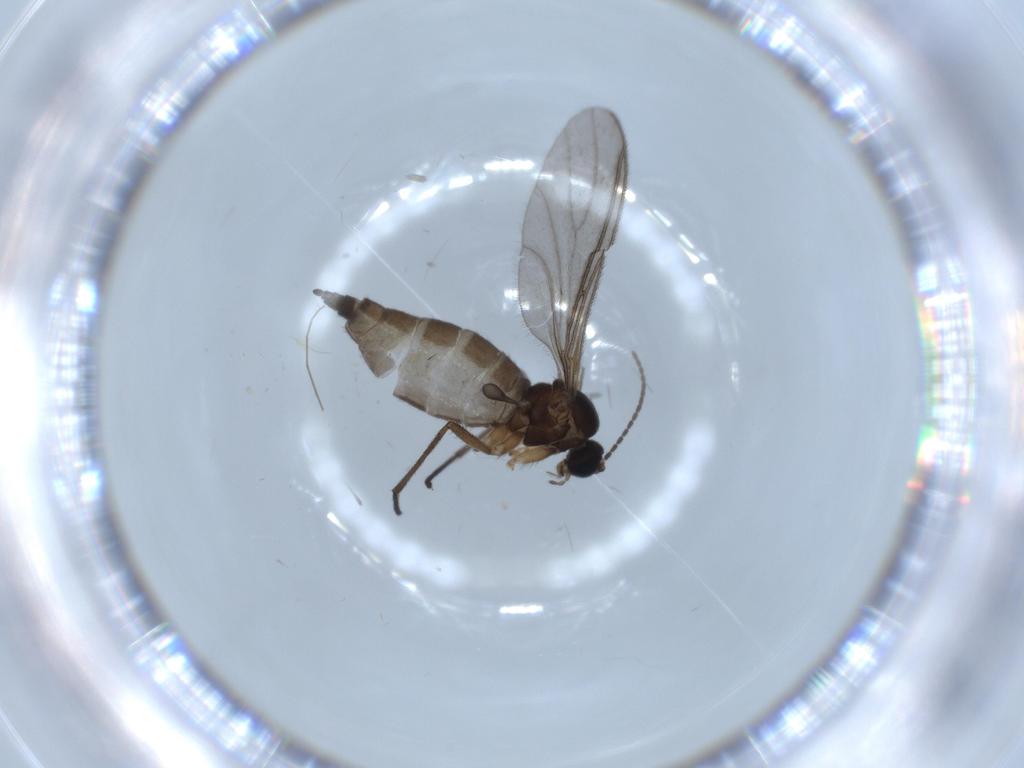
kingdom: Animalia
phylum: Arthropoda
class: Insecta
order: Diptera
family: Sciaridae
